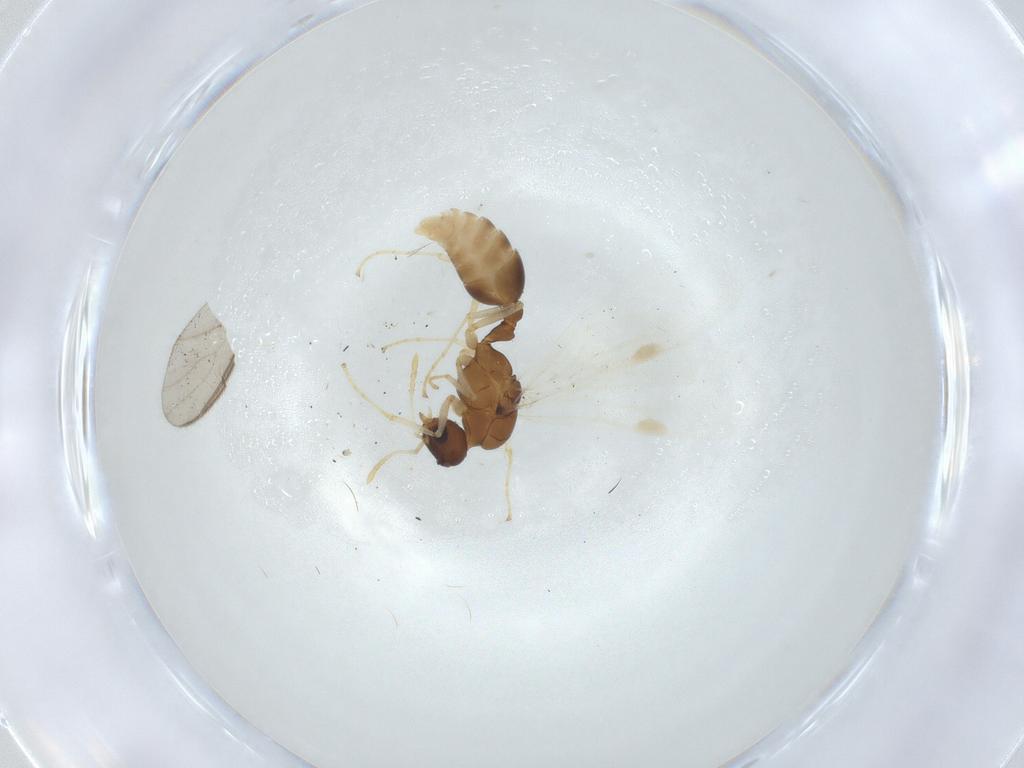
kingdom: Animalia
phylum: Arthropoda
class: Insecta
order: Hymenoptera
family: Formicidae
